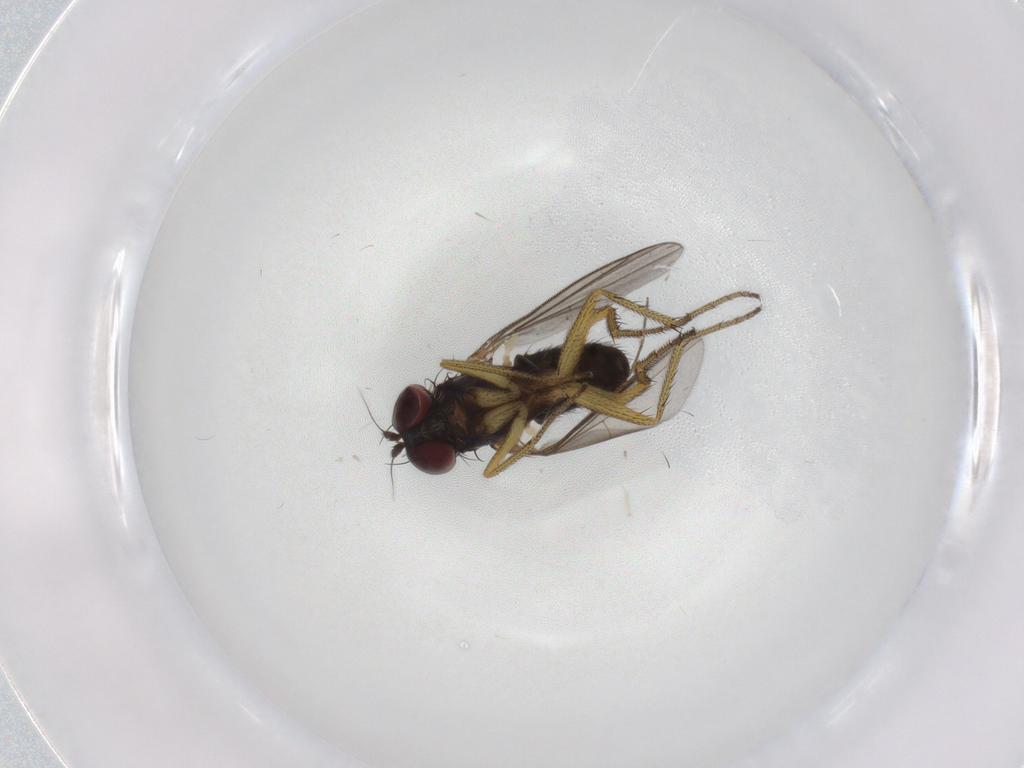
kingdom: Animalia
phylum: Arthropoda
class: Insecta
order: Diptera
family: Dolichopodidae
